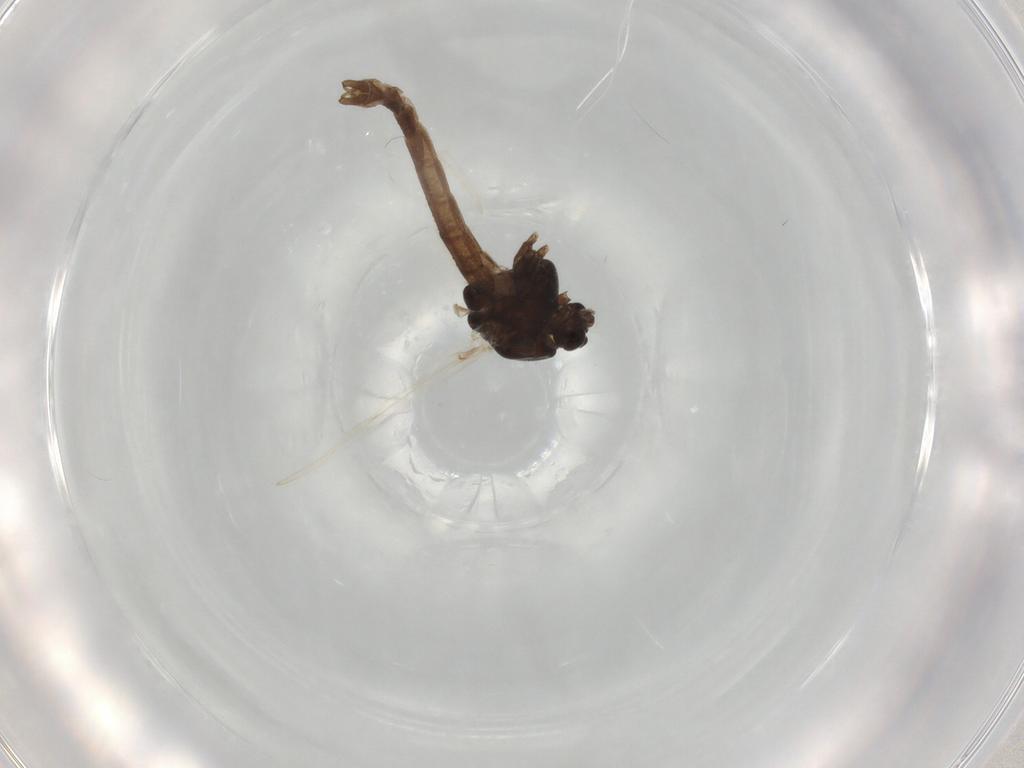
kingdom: Animalia
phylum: Arthropoda
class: Insecta
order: Diptera
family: Chironomidae
